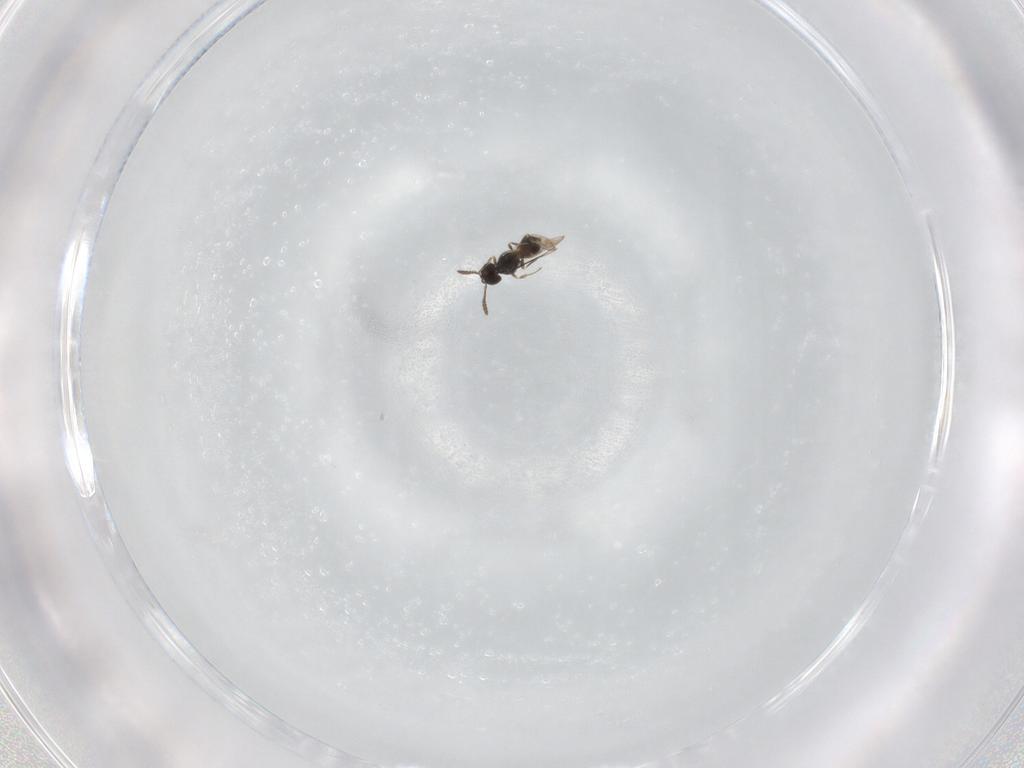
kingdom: Animalia
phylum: Arthropoda
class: Insecta
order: Hymenoptera
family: Scelionidae
